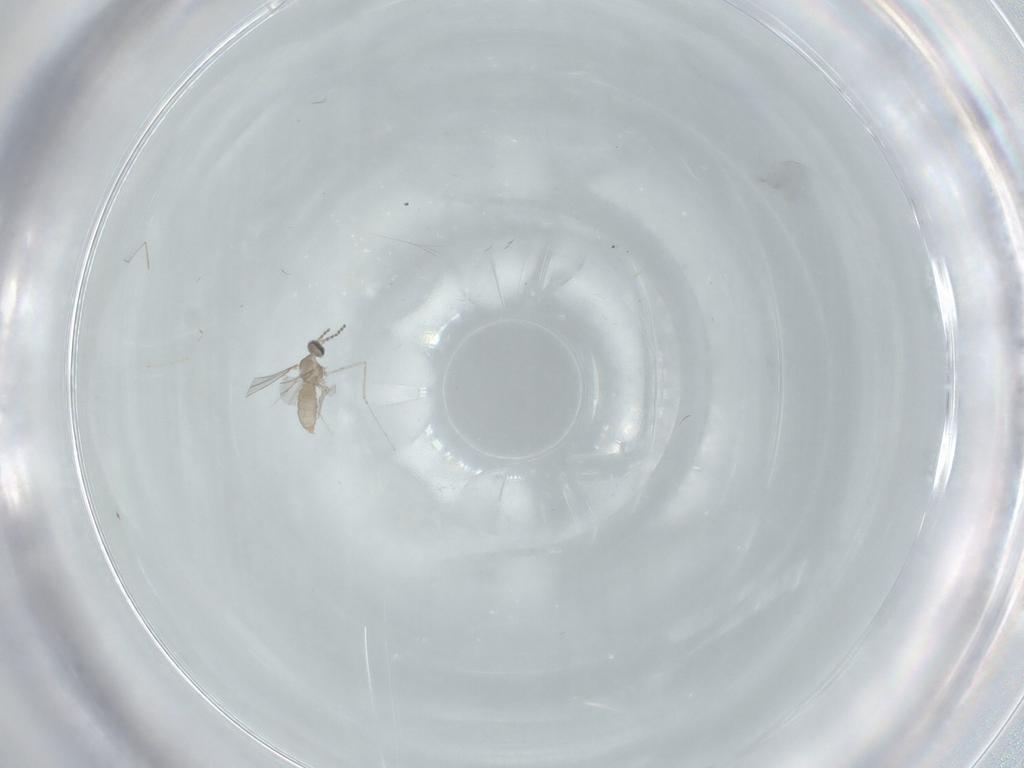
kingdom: Animalia
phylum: Arthropoda
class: Insecta
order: Diptera
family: Cecidomyiidae
